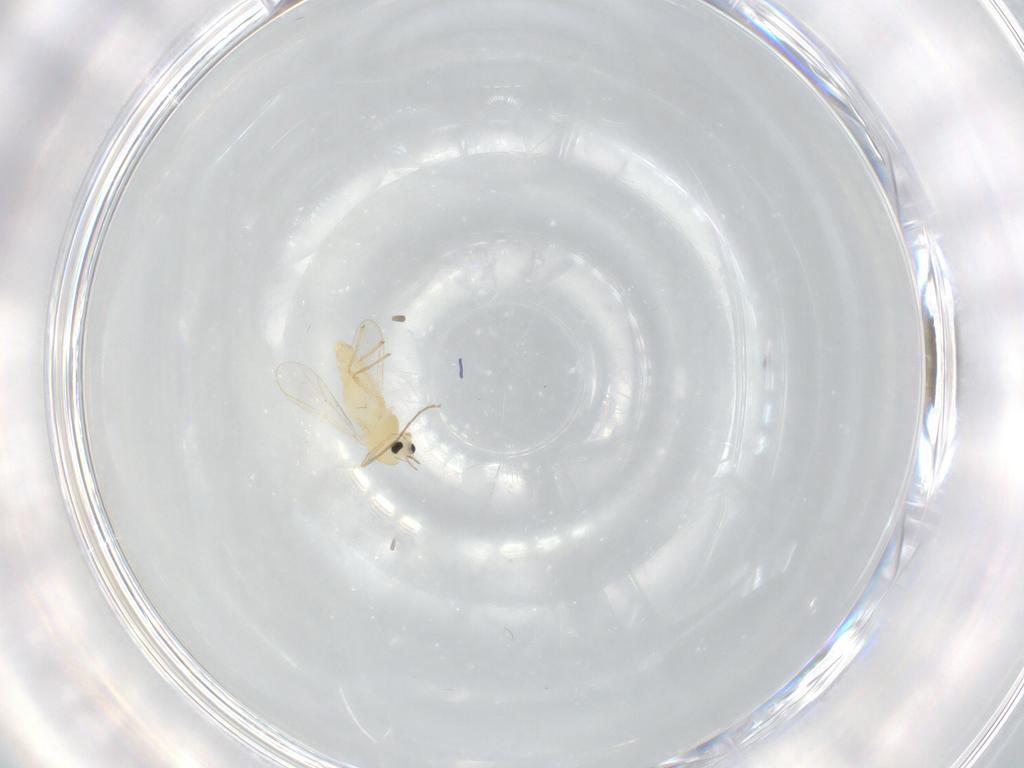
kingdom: Animalia
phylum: Arthropoda
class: Insecta
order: Diptera
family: Chironomidae
